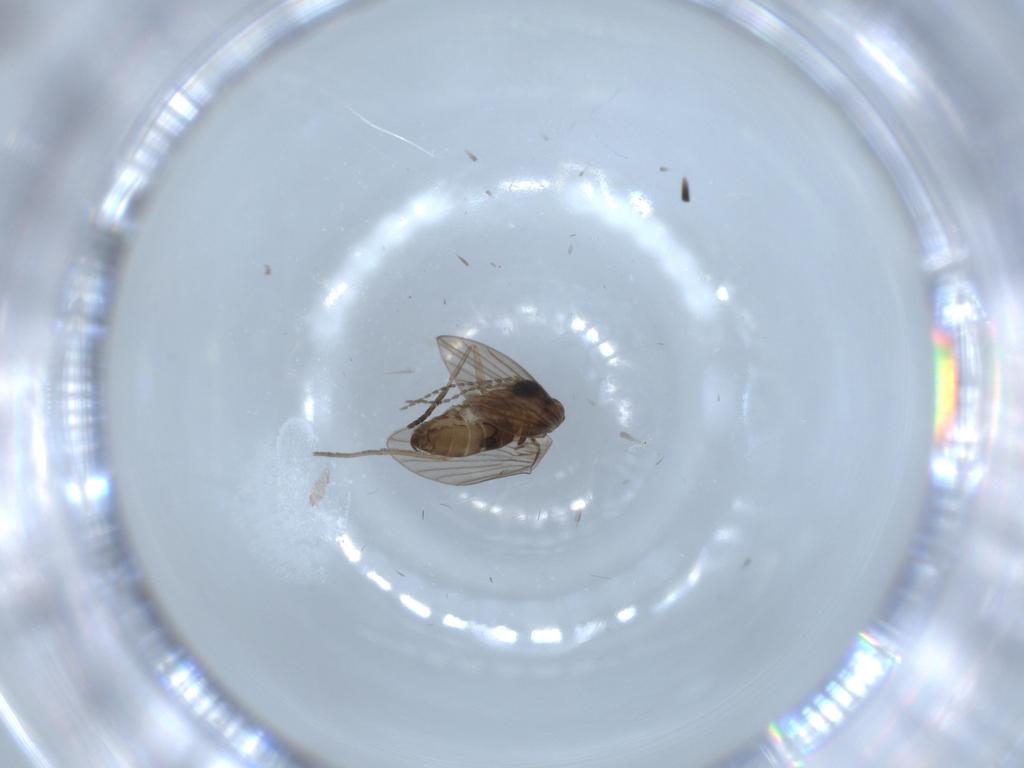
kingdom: Animalia
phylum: Arthropoda
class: Insecta
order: Diptera
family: Psychodidae
